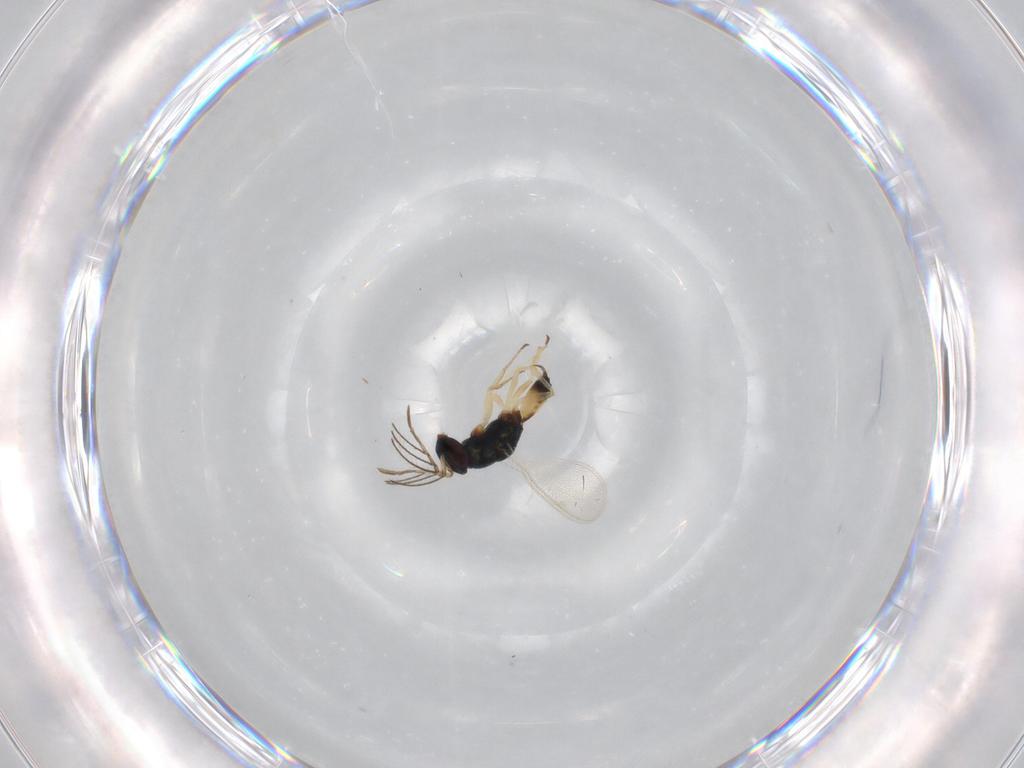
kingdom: Animalia
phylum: Arthropoda
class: Insecta
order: Hymenoptera
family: Eulophidae
